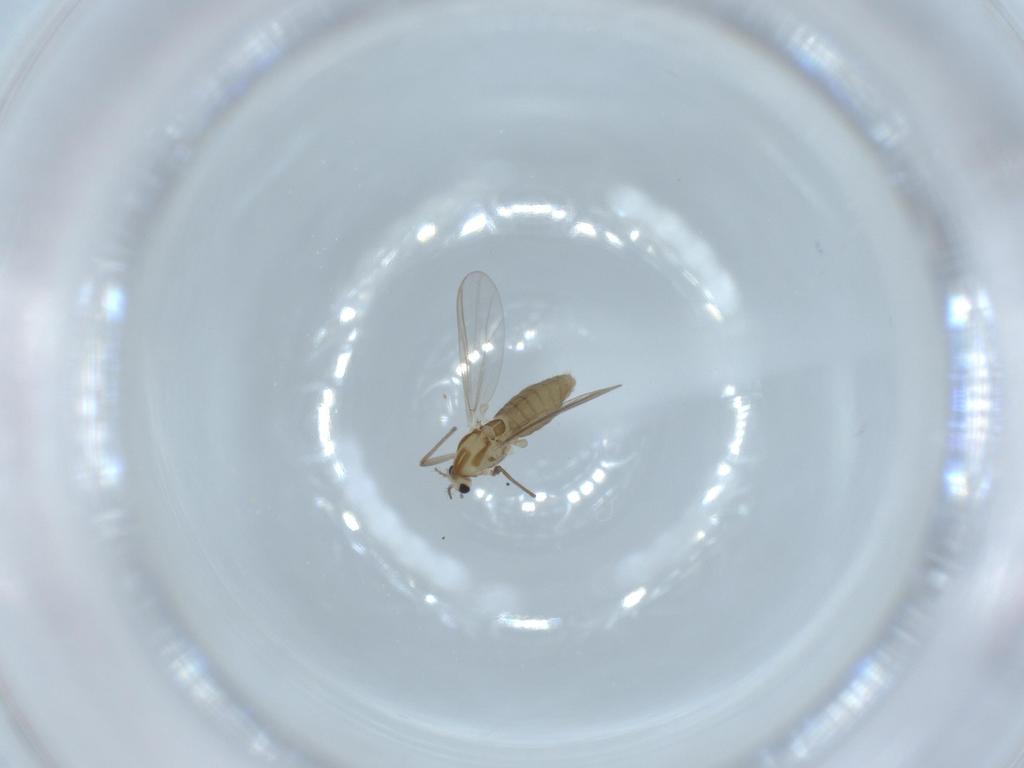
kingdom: Animalia
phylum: Arthropoda
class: Insecta
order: Diptera
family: Chironomidae
